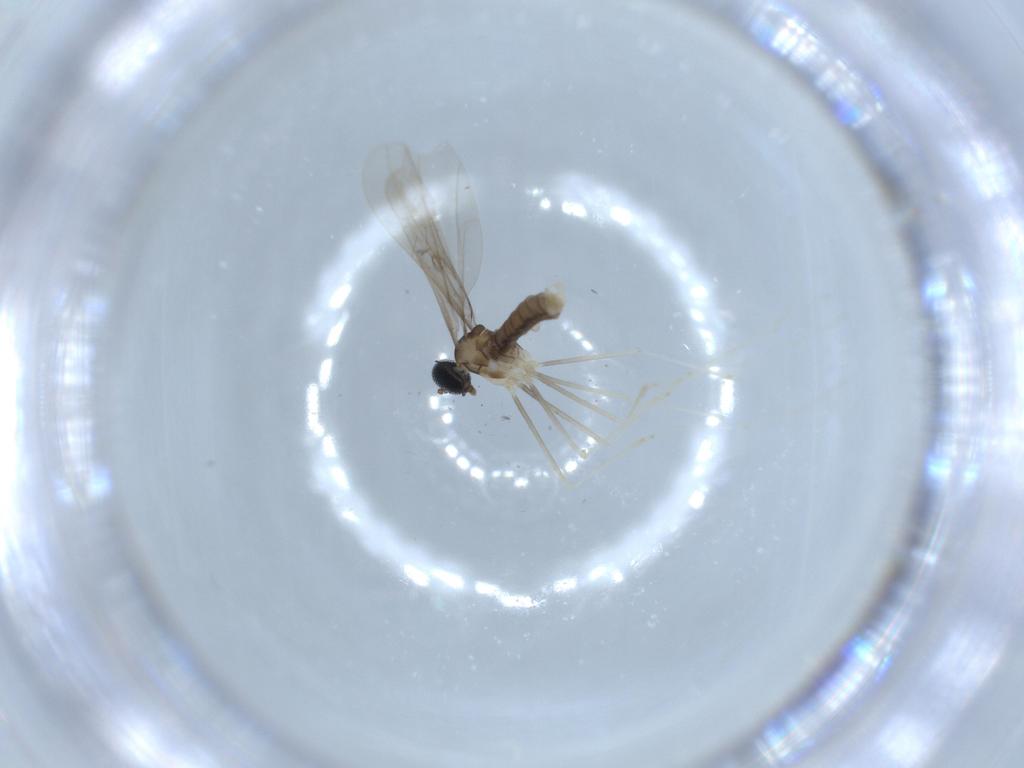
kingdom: Animalia
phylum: Arthropoda
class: Insecta
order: Diptera
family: Cecidomyiidae
